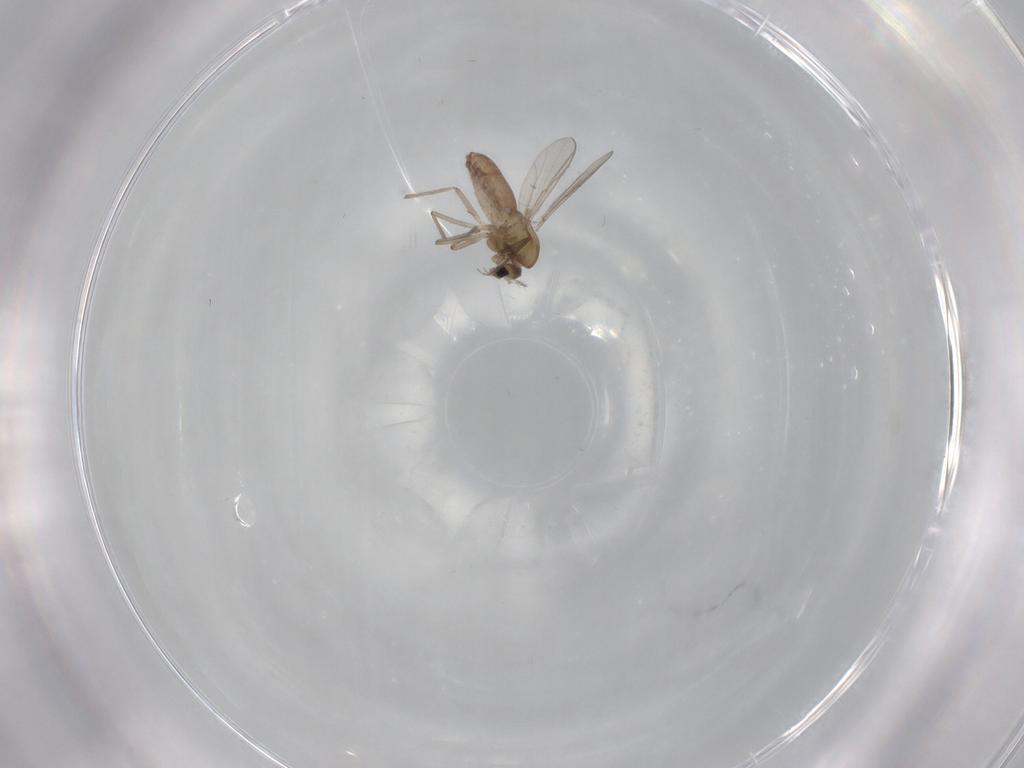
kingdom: Animalia
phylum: Arthropoda
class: Insecta
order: Diptera
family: Chironomidae
